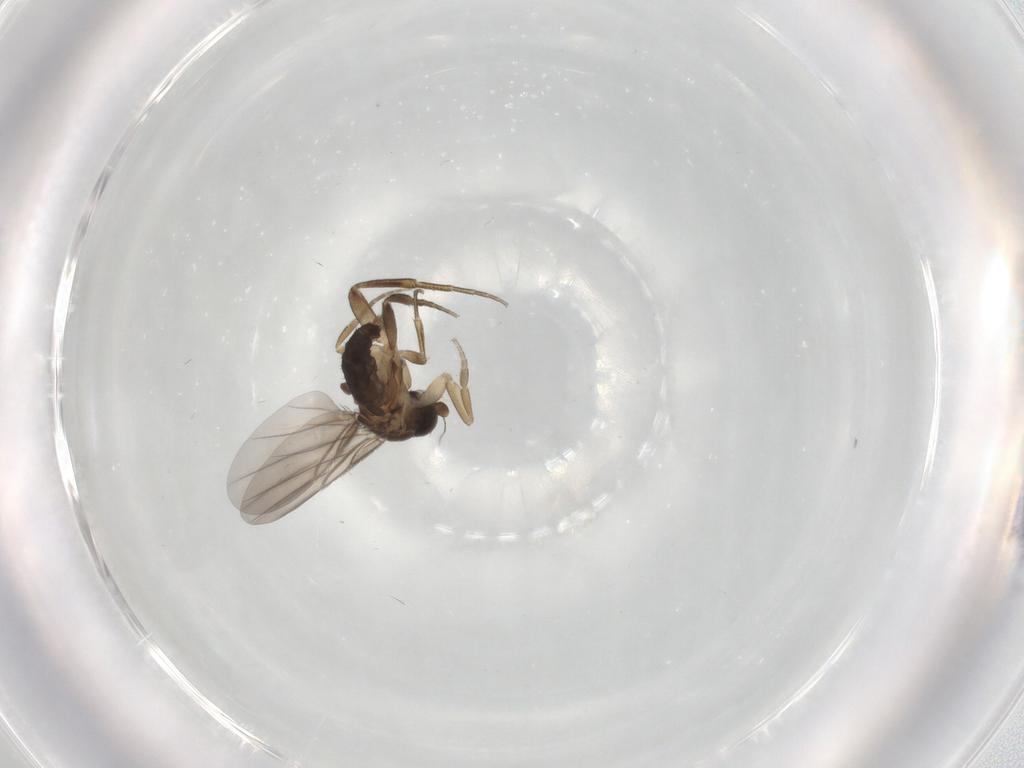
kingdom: Animalia
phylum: Arthropoda
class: Insecta
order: Diptera
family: Phoridae
